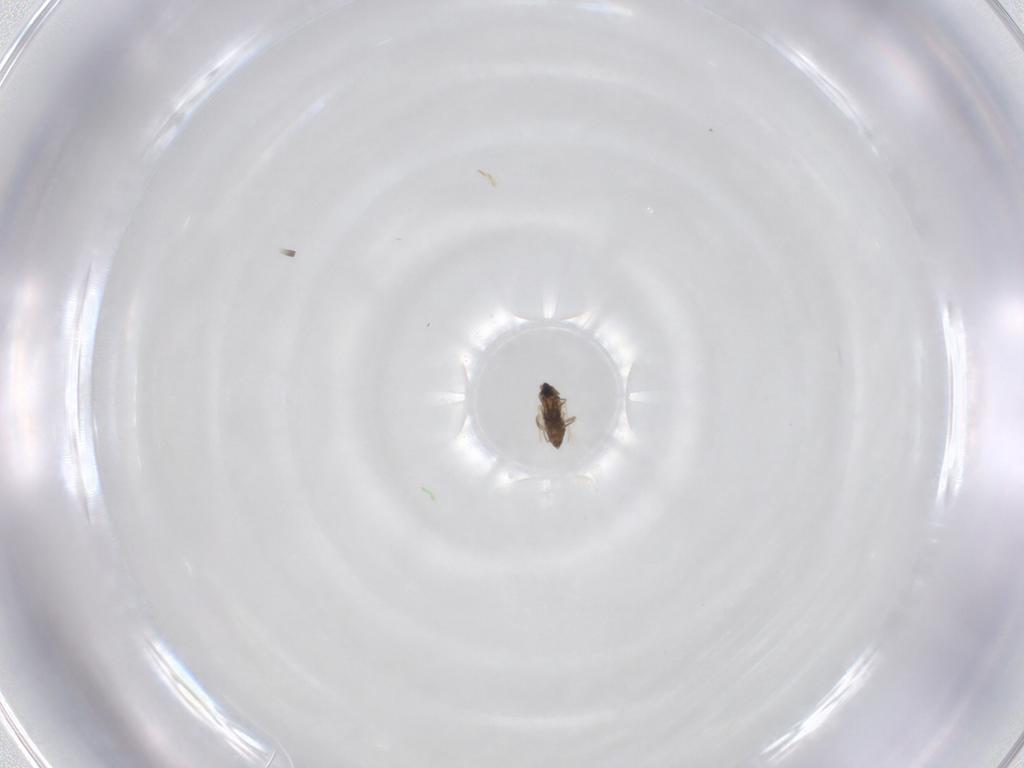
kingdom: Animalia
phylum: Arthropoda
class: Insecta
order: Diptera
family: Cecidomyiidae
